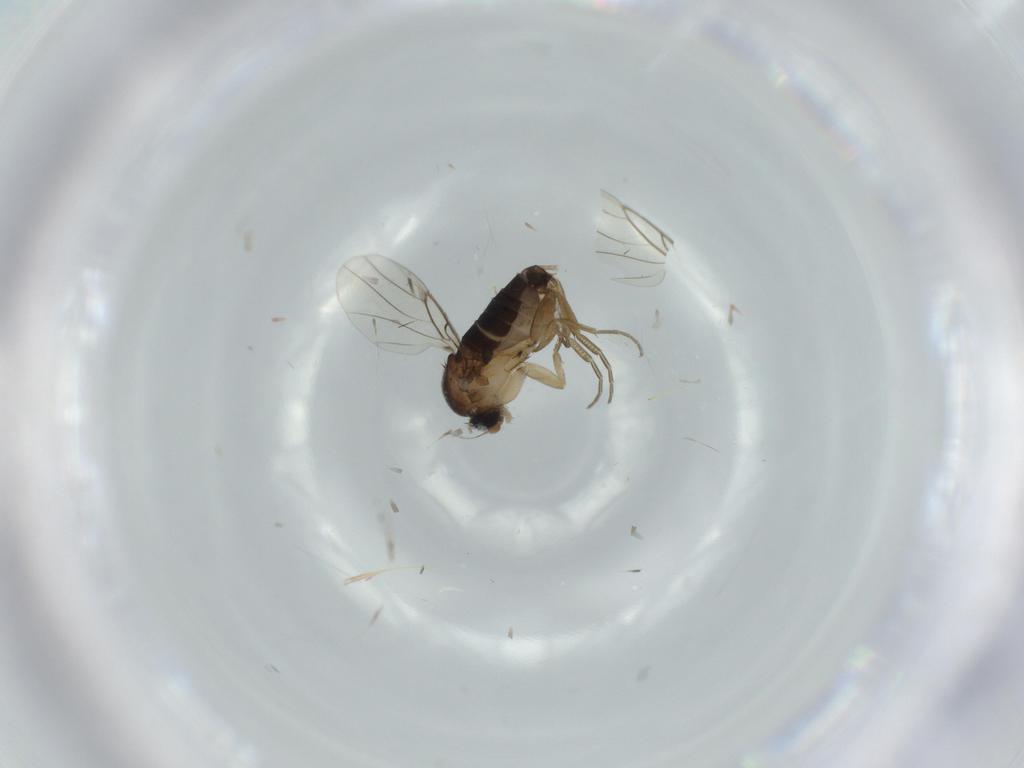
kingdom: Animalia
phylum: Arthropoda
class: Insecta
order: Diptera
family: Phoridae
